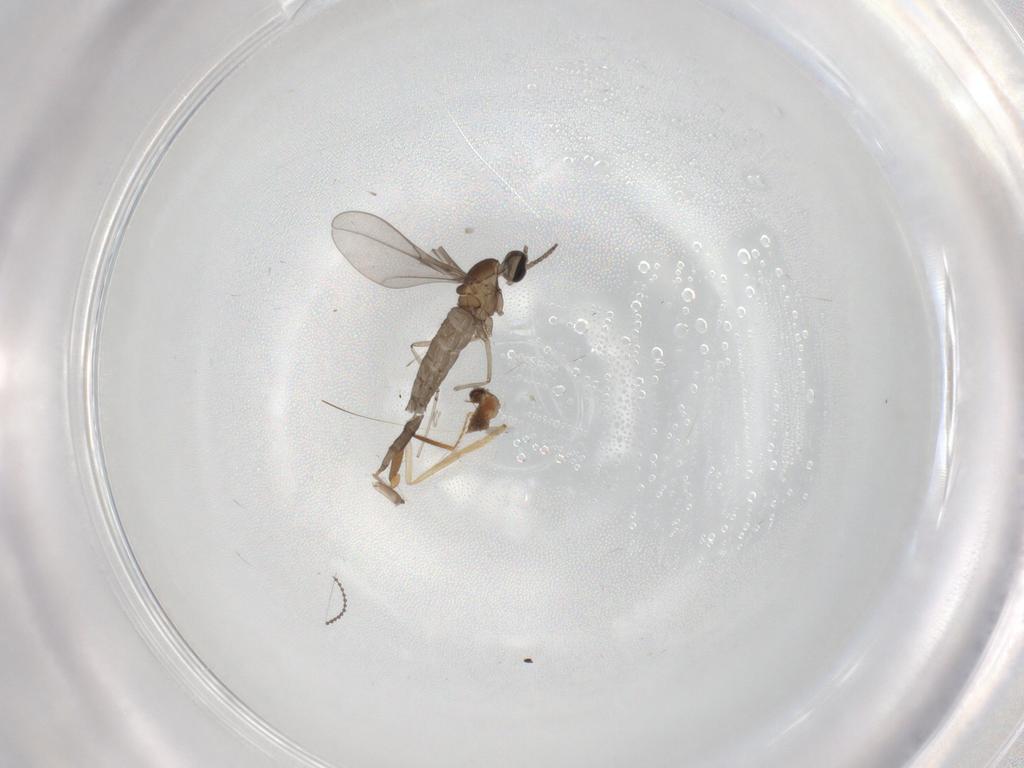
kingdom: Animalia
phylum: Arthropoda
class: Insecta
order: Diptera
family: Psychodidae
